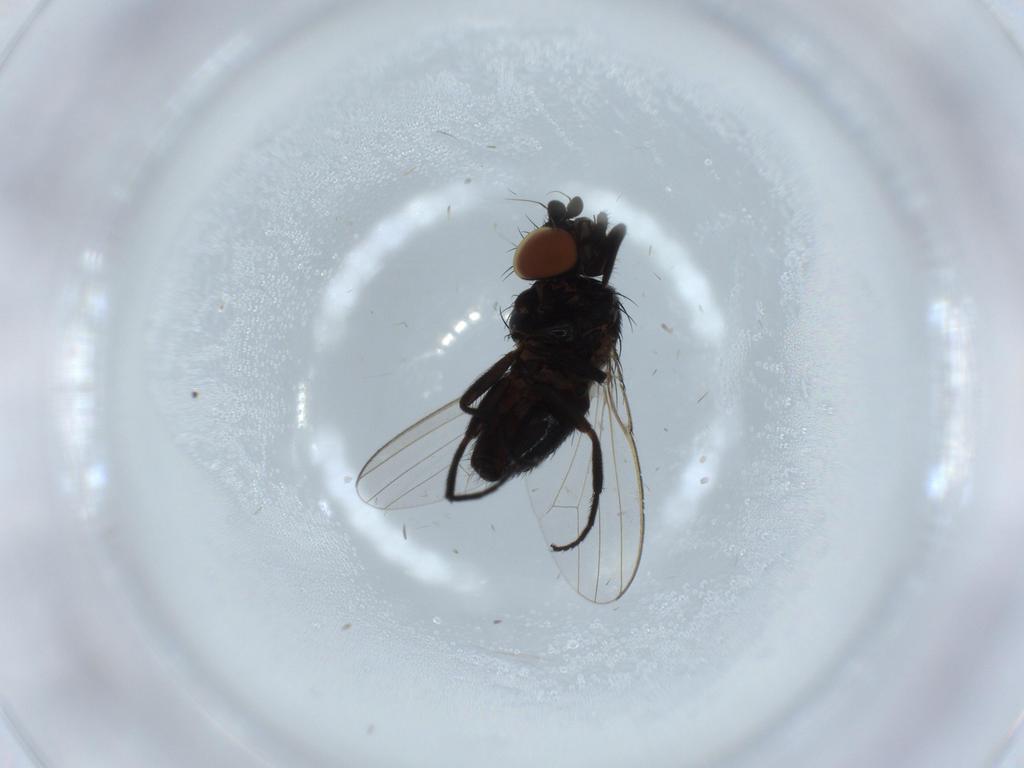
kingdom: Animalia
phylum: Arthropoda
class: Insecta
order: Diptera
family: Milichiidae
